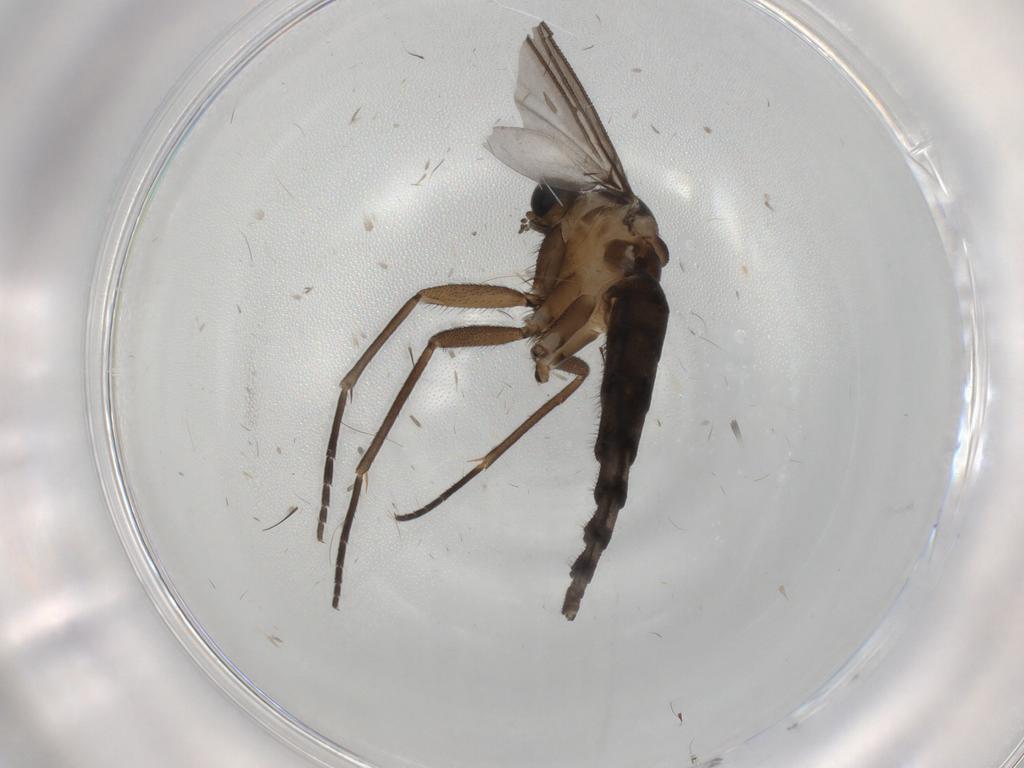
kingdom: Animalia
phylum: Arthropoda
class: Insecta
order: Diptera
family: Sciaridae
